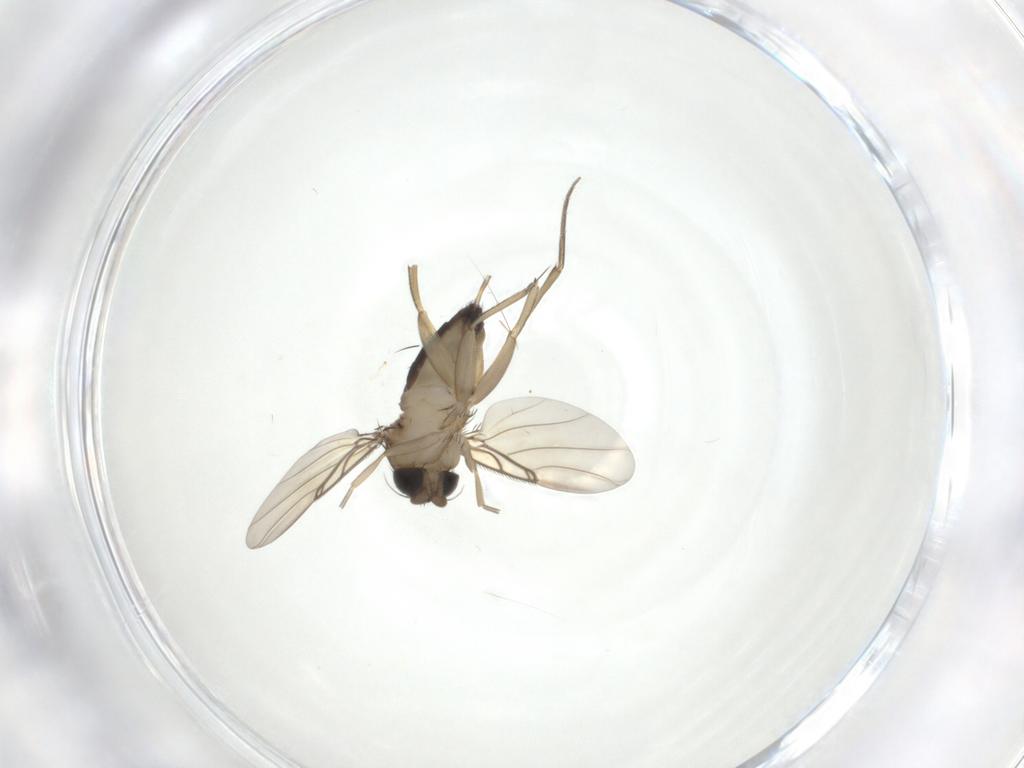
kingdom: Animalia
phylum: Arthropoda
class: Insecta
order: Diptera
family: Phoridae
